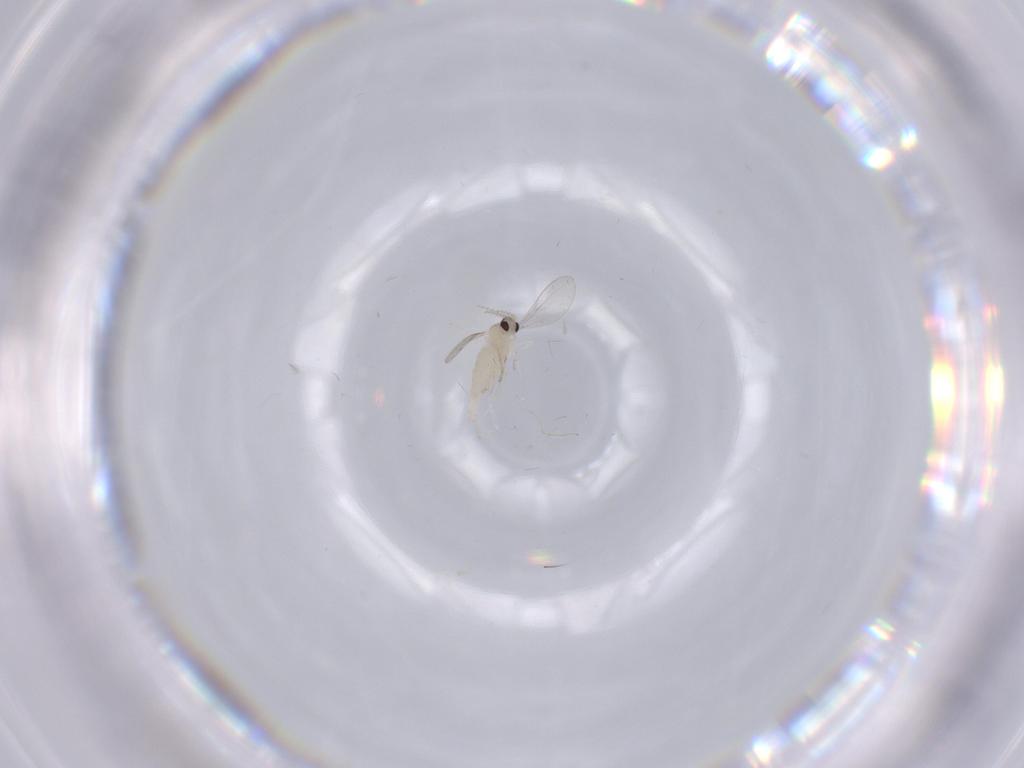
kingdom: Animalia
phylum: Arthropoda
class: Insecta
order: Diptera
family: Cecidomyiidae
